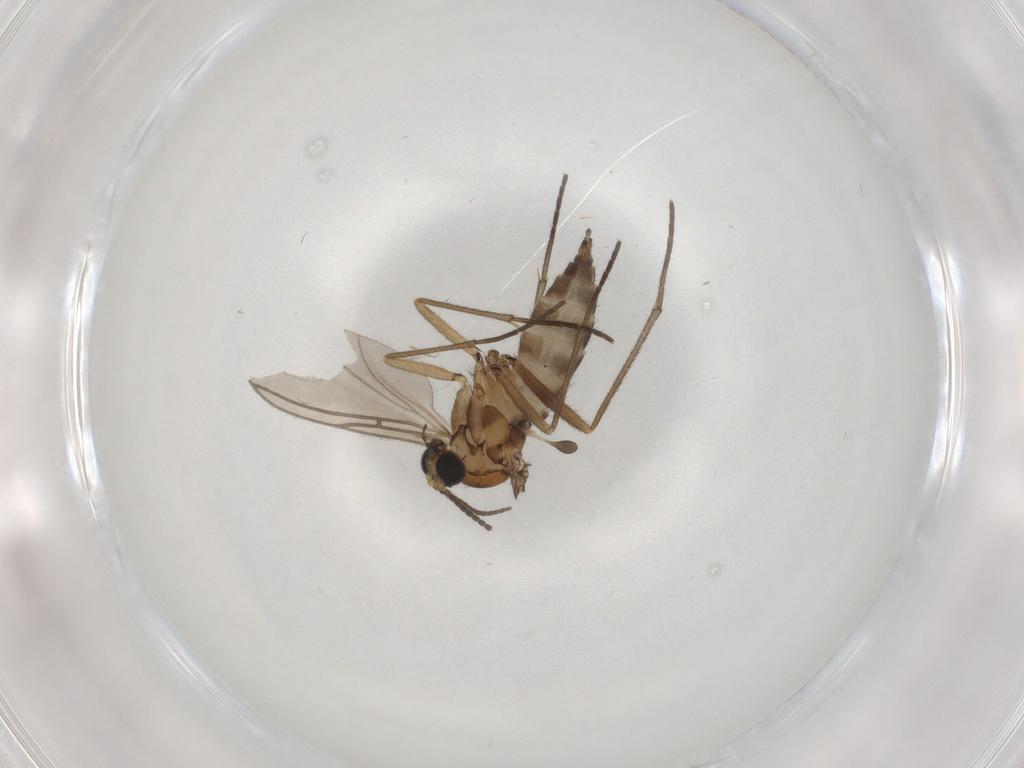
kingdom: Animalia
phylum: Arthropoda
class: Insecta
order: Diptera
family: Sciaridae
